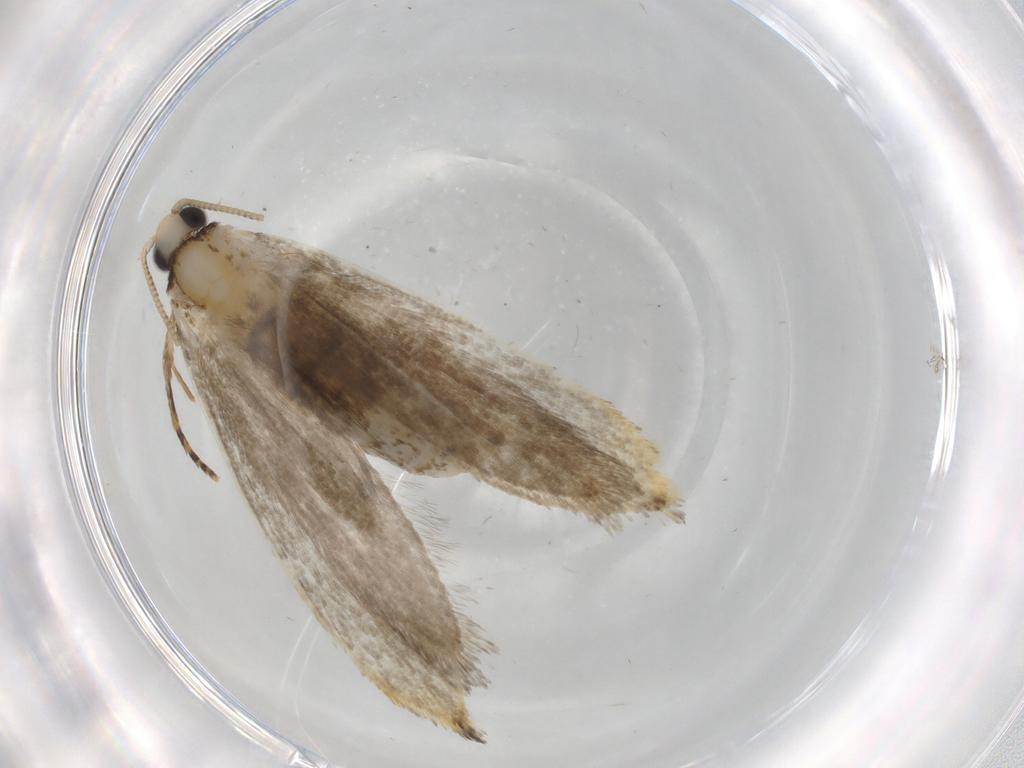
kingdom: Animalia
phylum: Arthropoda
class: Insecta
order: Lepidoptera
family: Tineidae
